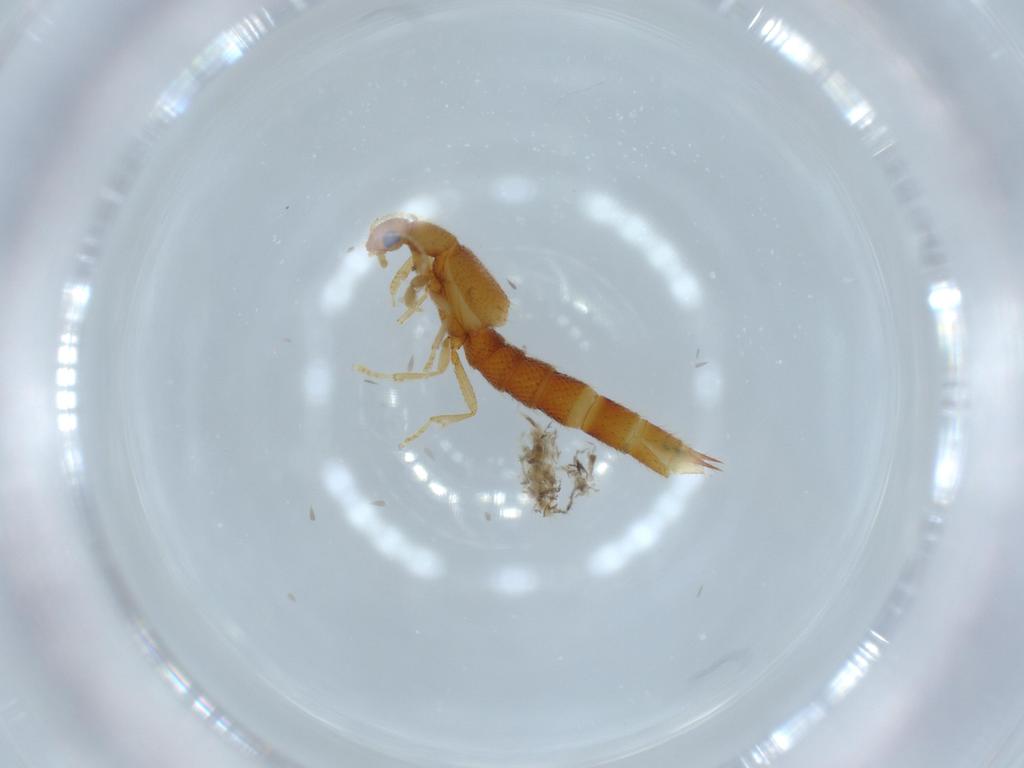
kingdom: Animalia
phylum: Arthropoda
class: Insecta
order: Coleoptera
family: Staphylinidae
